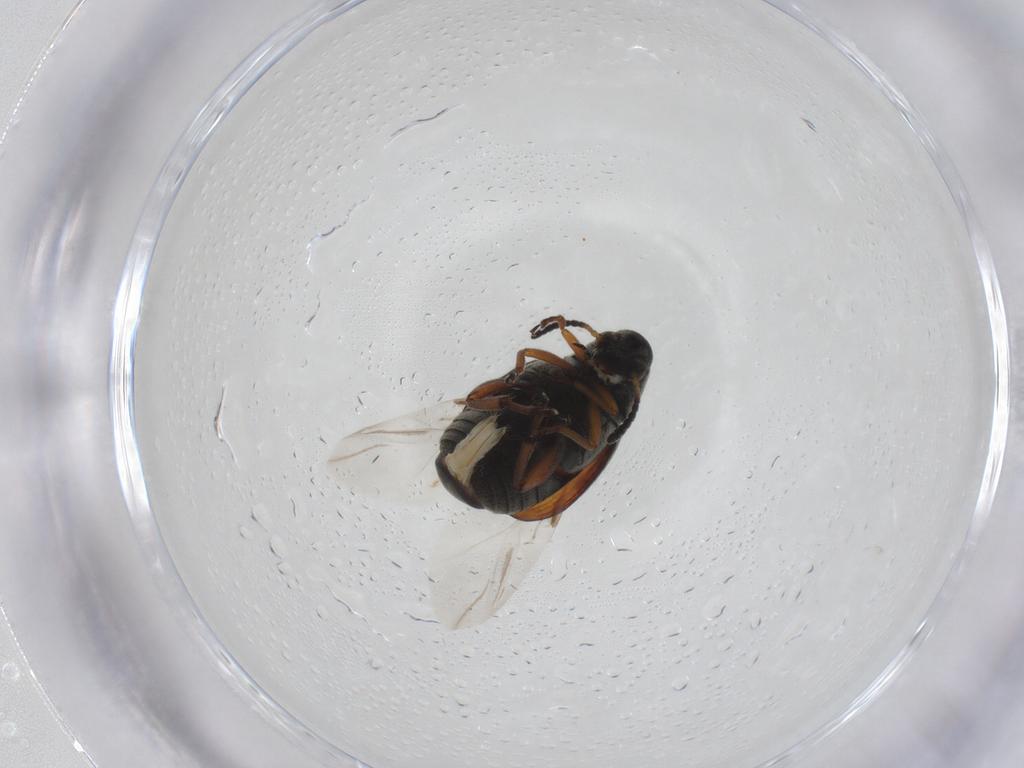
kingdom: Animalia
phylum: Arthropoda
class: Insecta
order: Coleoptera
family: Chrysomelidae
